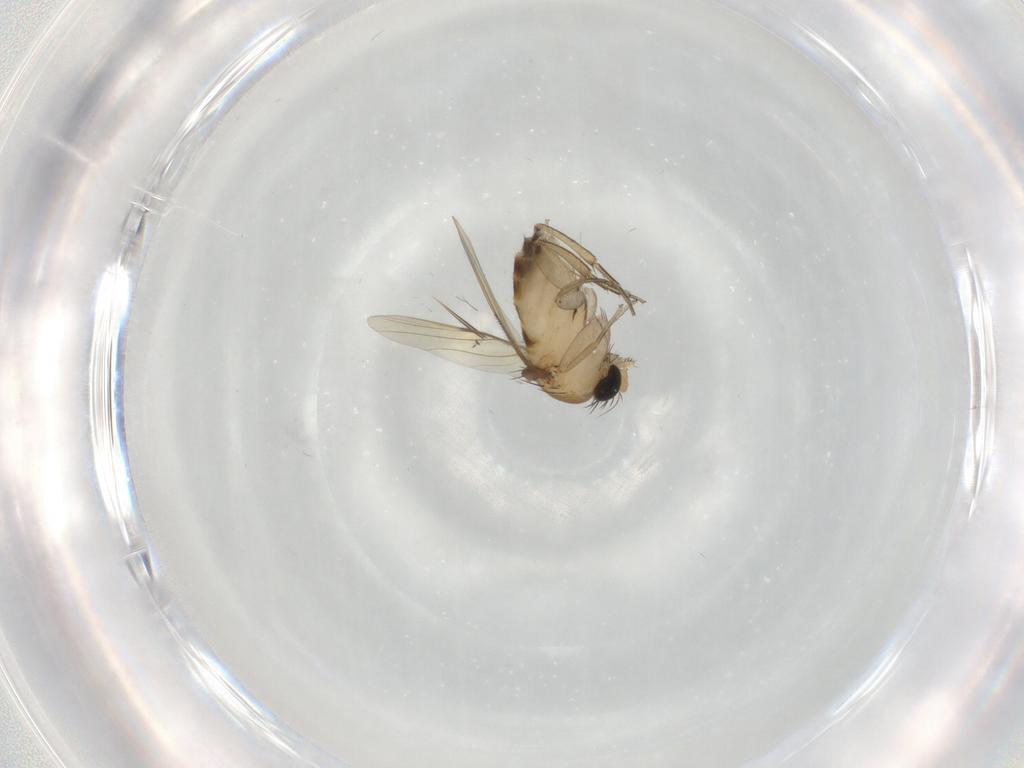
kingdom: Animalia
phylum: Arthropoda
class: Insecta
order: Diptera
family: Phoridae
